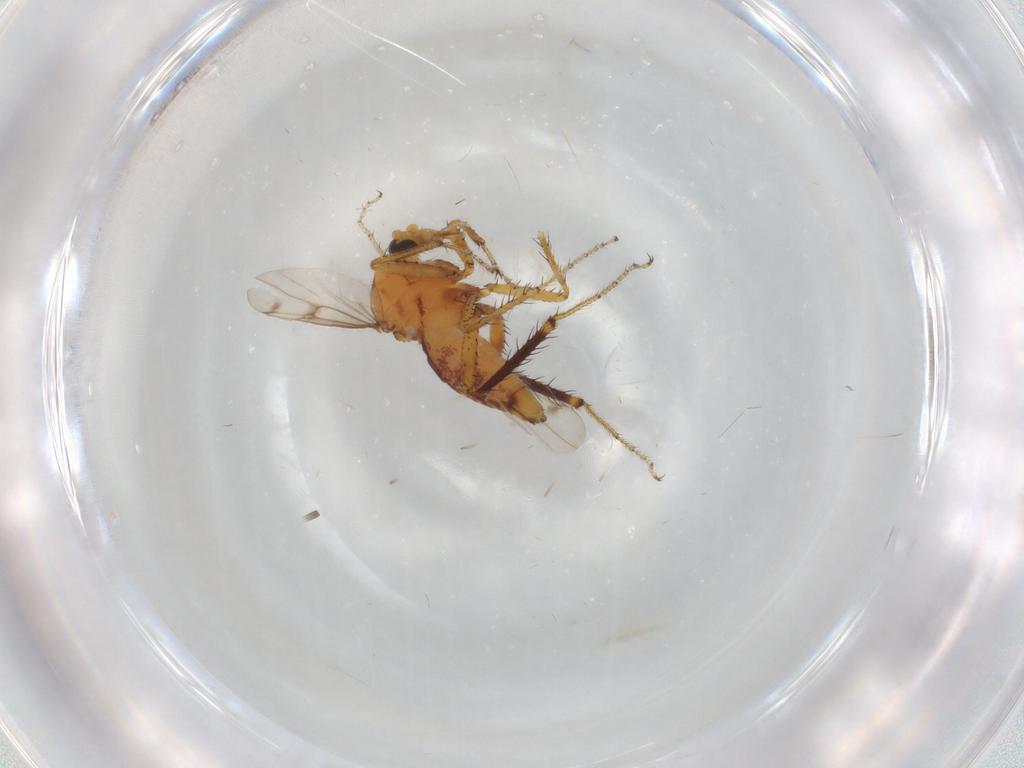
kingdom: Animalia
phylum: Arthropoda
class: Insecta
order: Diptera
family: Ceratopogonidae
